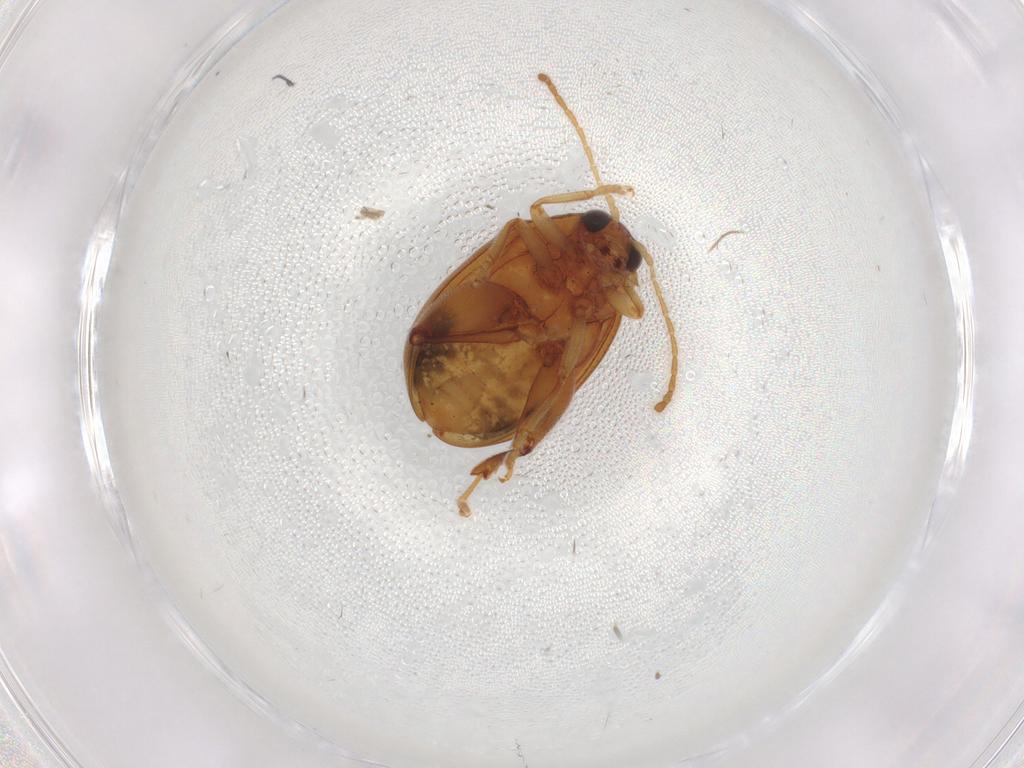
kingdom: Animalia
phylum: Arthropoda
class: Insecta
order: Coleoptera
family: Chrysomelidae
